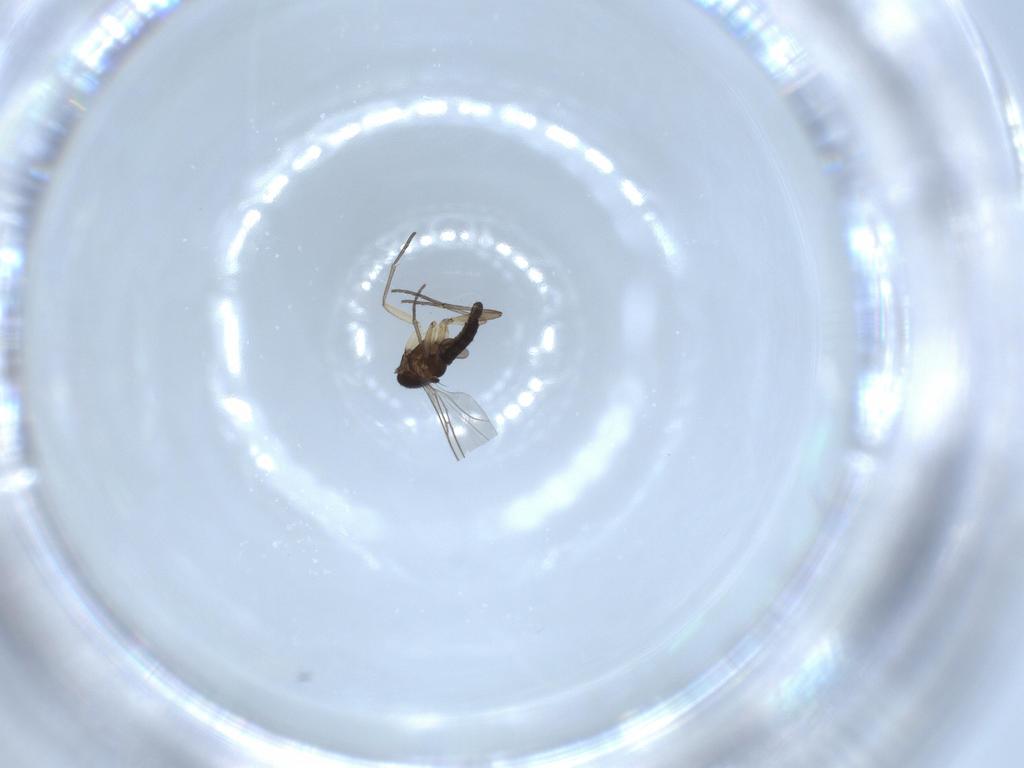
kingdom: Animalia
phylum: Arthropoda
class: Insecta
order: Diptera
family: Sciaridae
